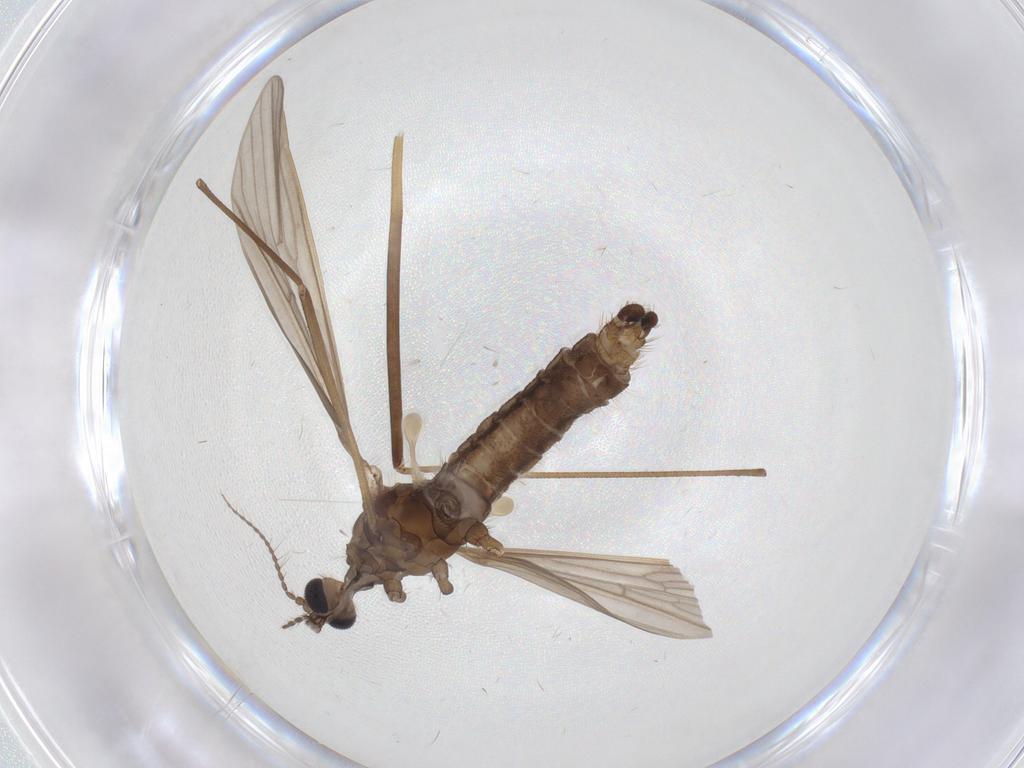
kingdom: Animalia
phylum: Arthropoda
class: Insecta
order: Diptera
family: Milichiidae
